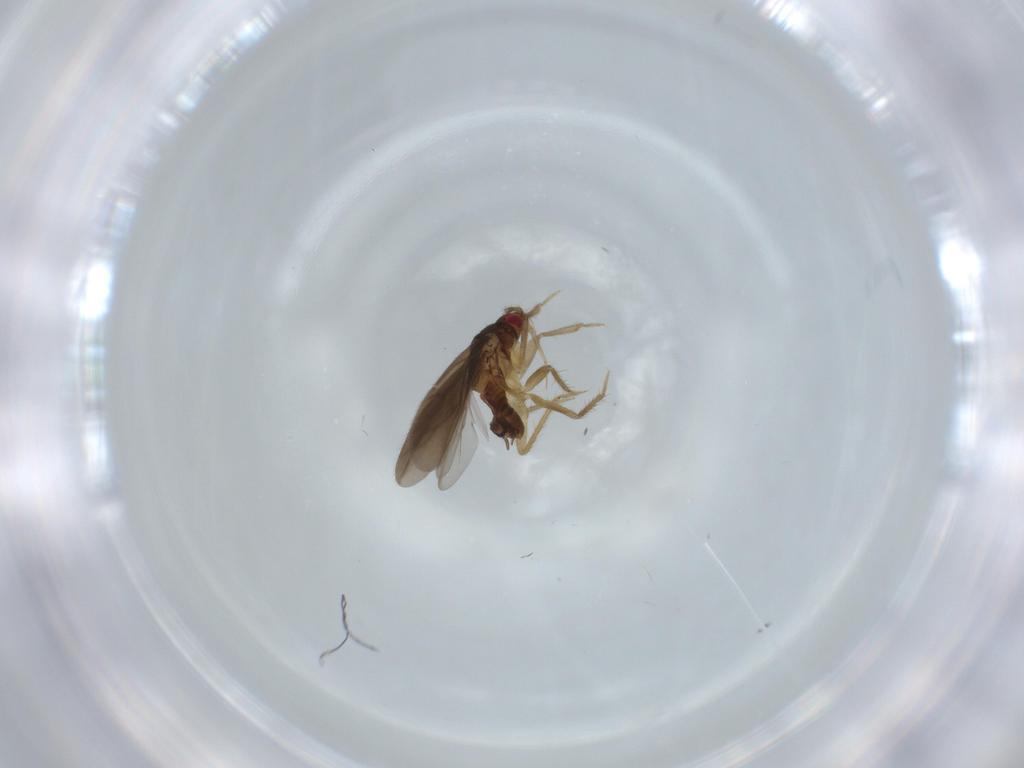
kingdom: Animalia
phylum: Arthropoda
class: Insecta
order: Hemiptera
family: Ceratocombidae
